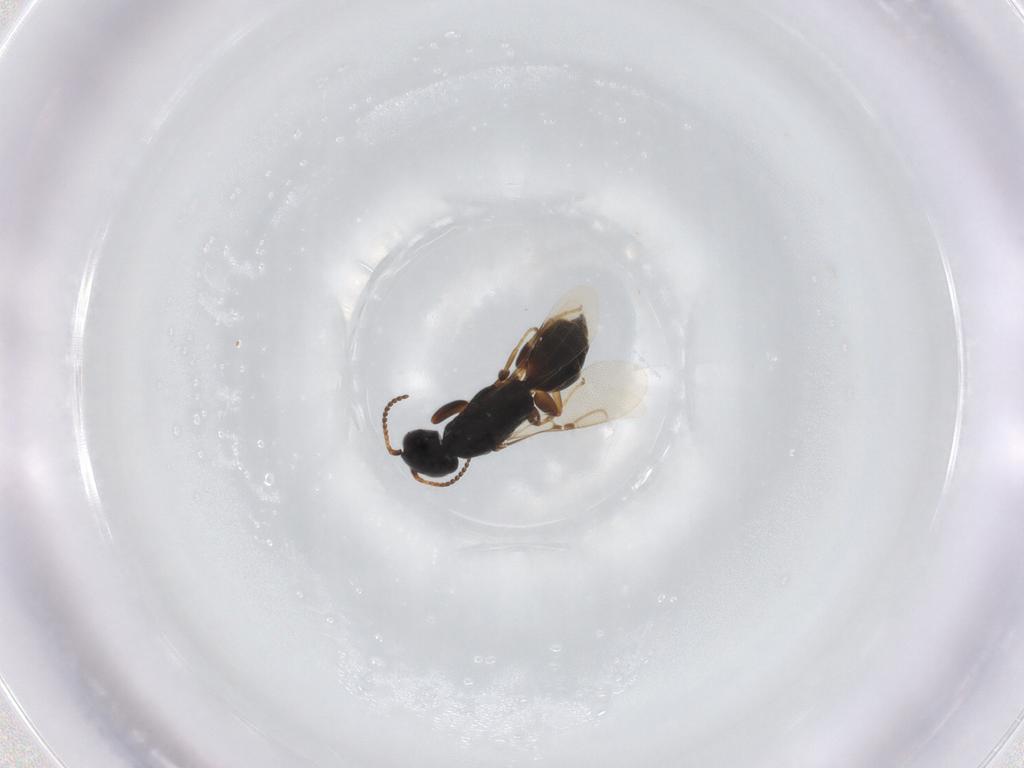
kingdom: Animalia
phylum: Arthropoda
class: Insecta
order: Hymenoptera
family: Bethylidae
